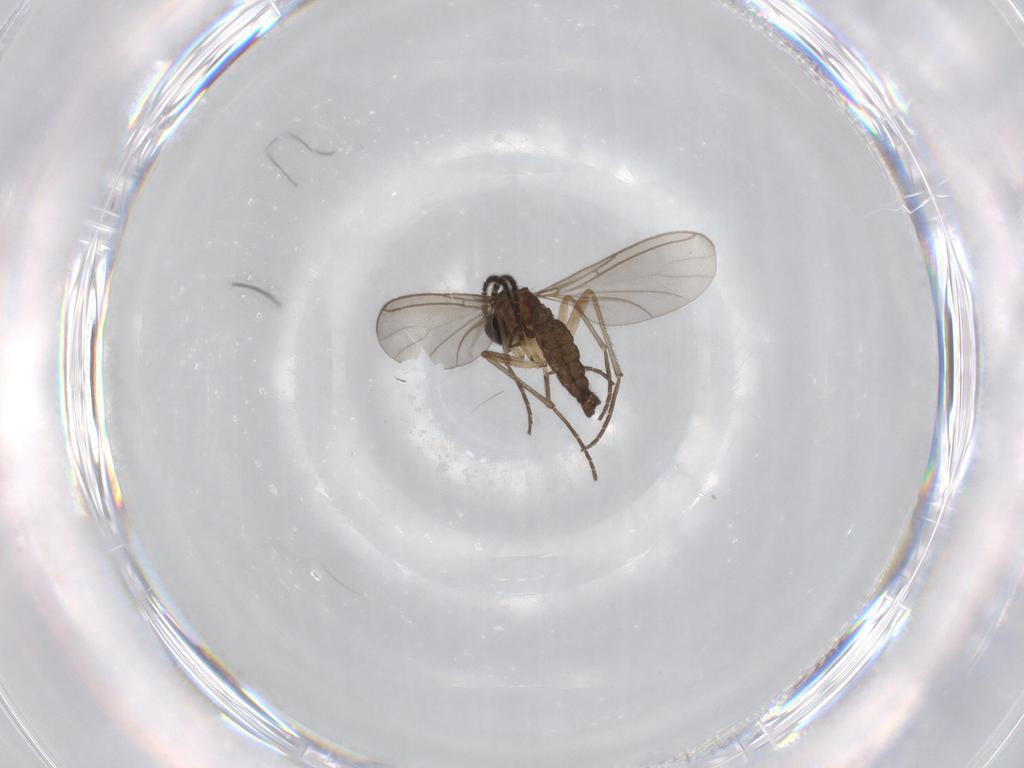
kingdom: Animalia
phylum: Arthropoda
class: Insecta
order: Diptera
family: Sciaridae
